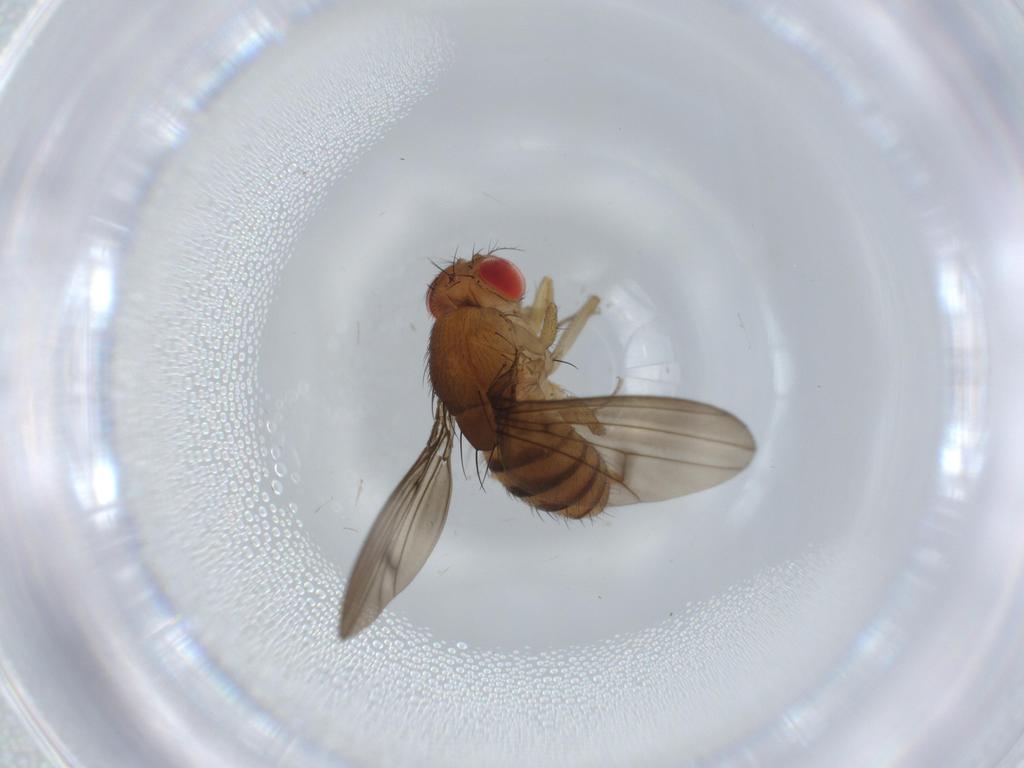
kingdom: Animalia
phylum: Arthropoda
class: Insecta
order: Diptera
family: Drosophilidae
